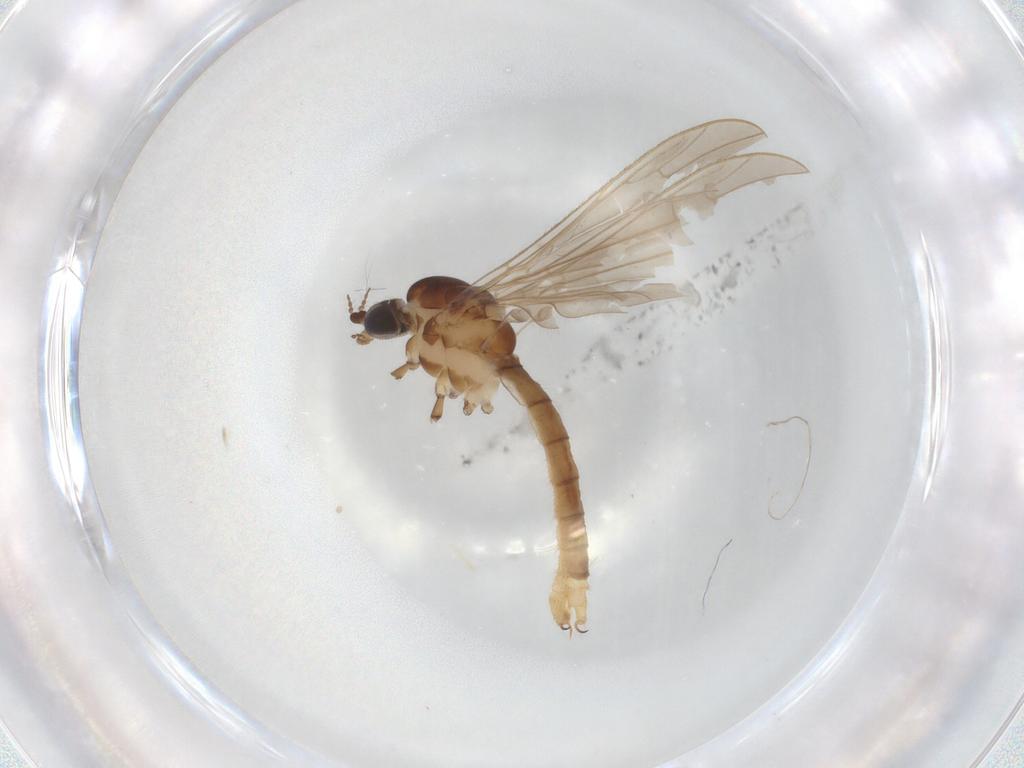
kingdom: Animalia
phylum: Arthropoda
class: Insecta
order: Diptera
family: Limoniidae
